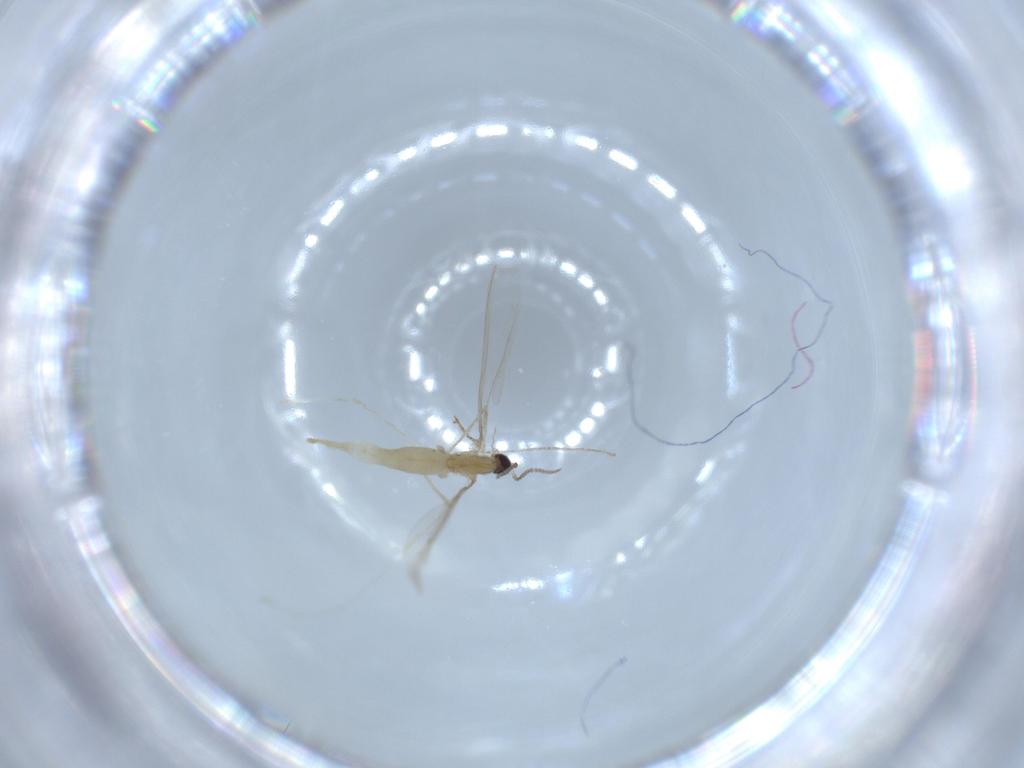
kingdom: Animalia
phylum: Arthropoda
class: Insecta
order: Diptera
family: Cecidomyiidae
